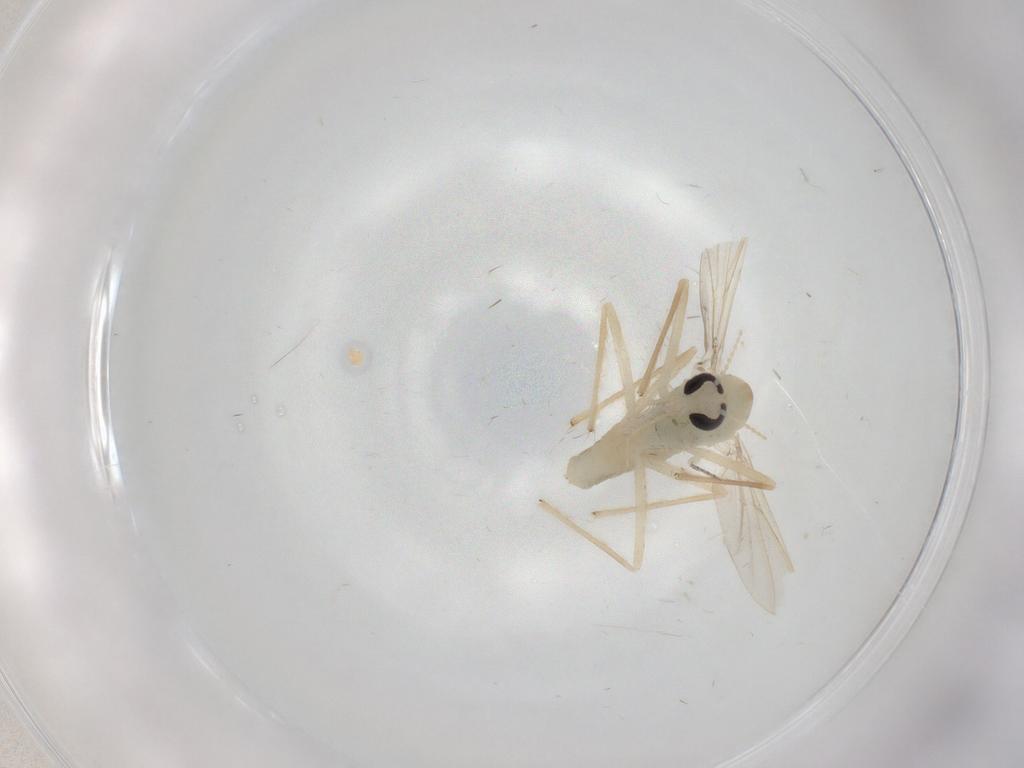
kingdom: Animalia
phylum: Arthropoda
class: Insecta
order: Diptera
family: Chironomidae
